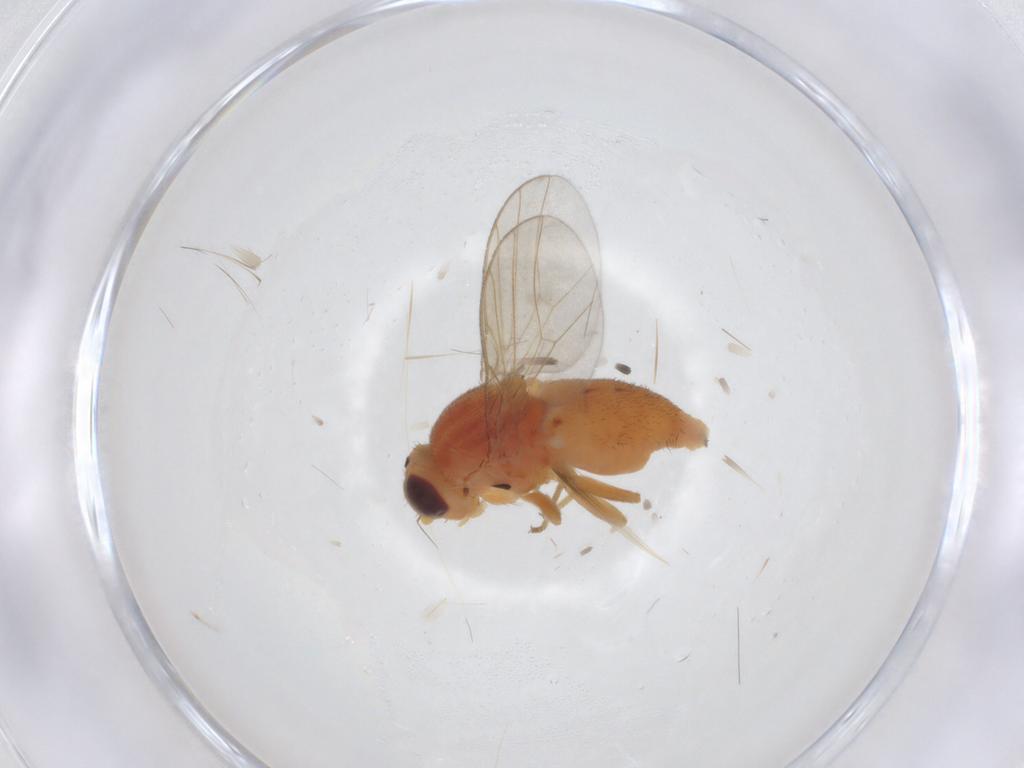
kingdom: Animalia
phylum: Arthropoda
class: Insecta
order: Diptera
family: Chloropidae
